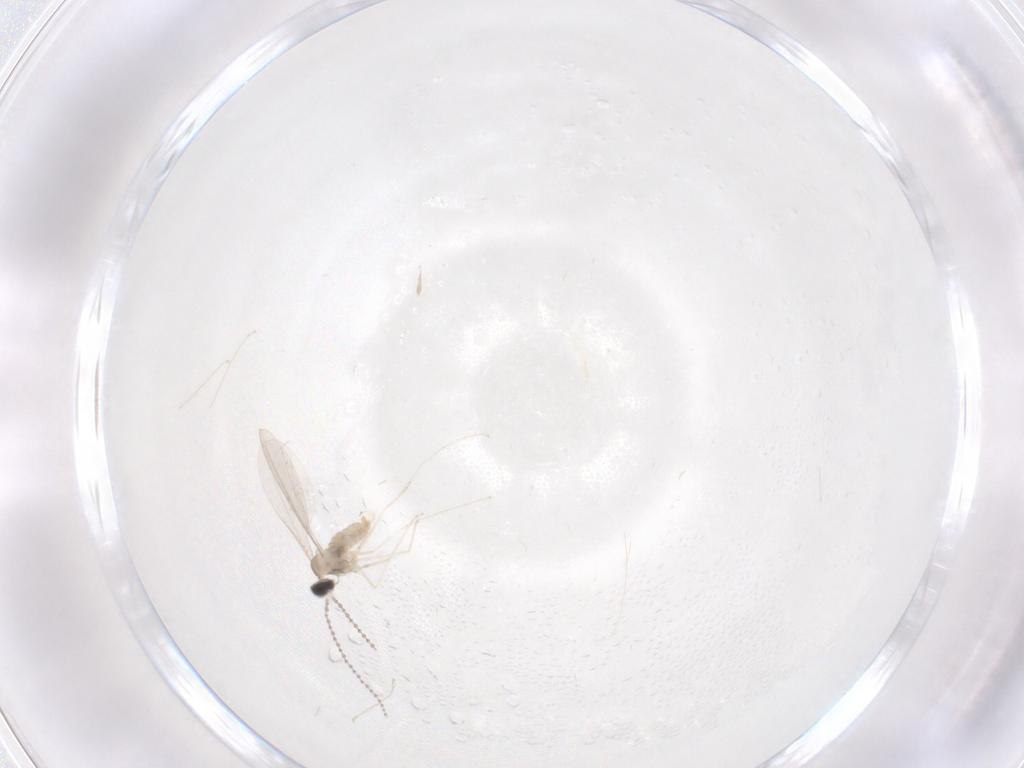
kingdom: Animalia
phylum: Arthropoda
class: Insecta
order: Diptera
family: Cecidomyiidae
